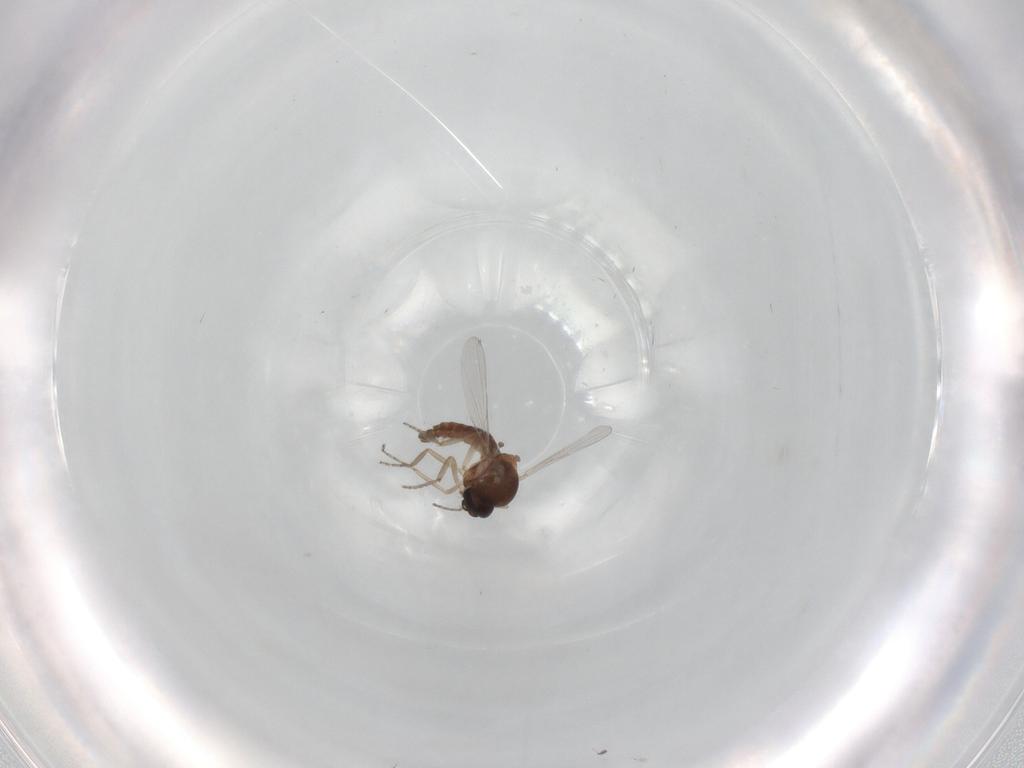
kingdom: Animalia
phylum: Arthropoda
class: Insecta
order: Diptera
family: Ceratopogonidae
